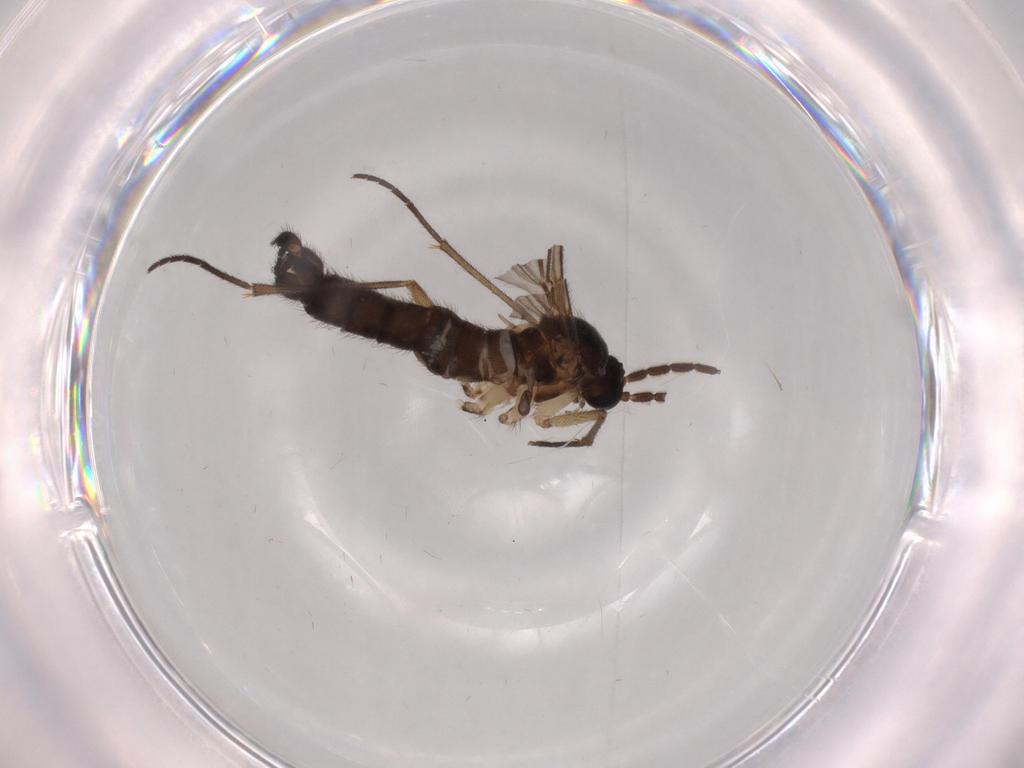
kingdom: Animalia
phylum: Arthropoda
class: Insecta
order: Diptera
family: Sciaridae
